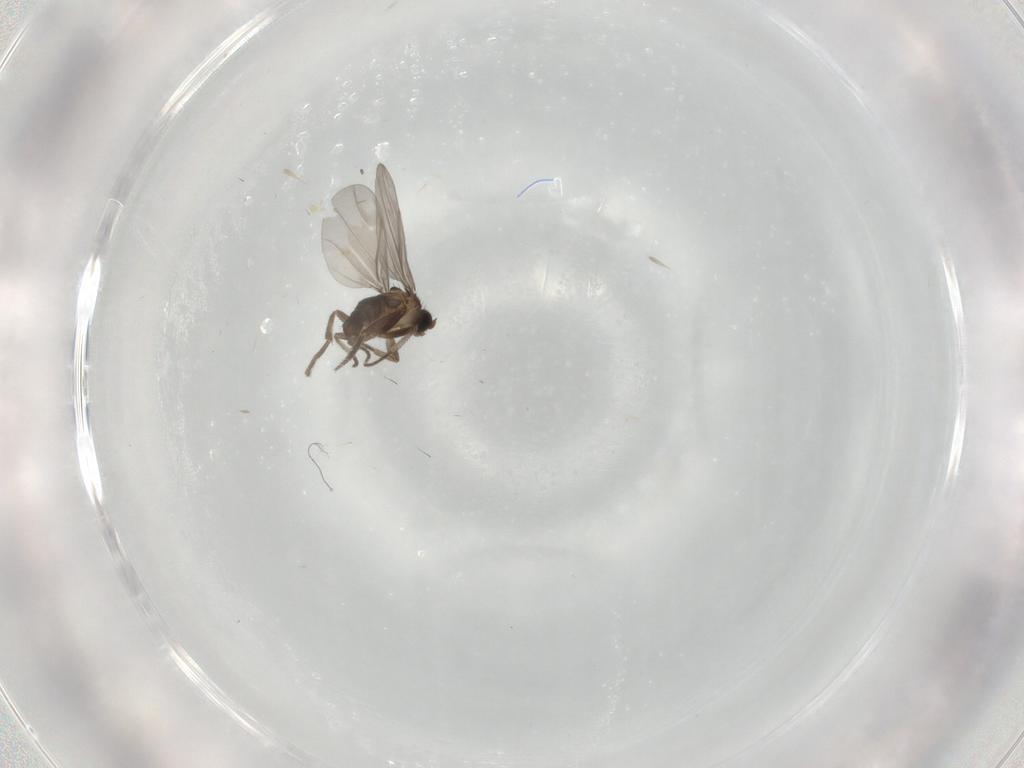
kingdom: Animalia
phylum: Arthropoda
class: Insecta
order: Diptera
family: Phoridae
